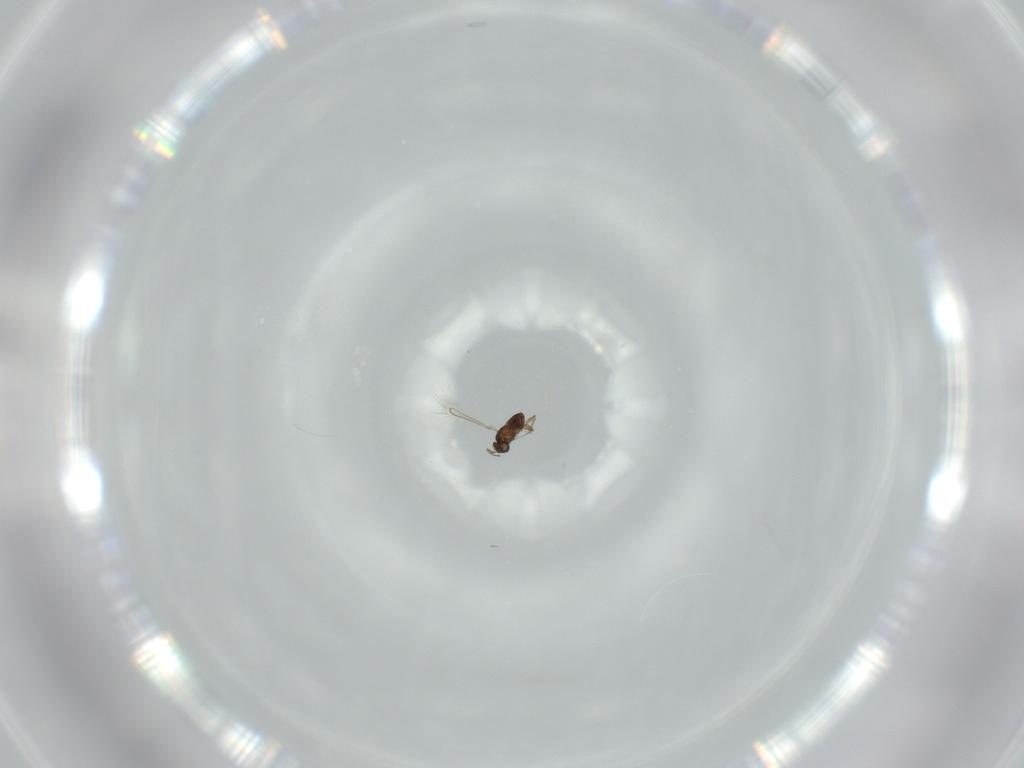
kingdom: Animalia
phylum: Arthropoda
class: Insecta
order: Hymenoptera
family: Mymaridae
